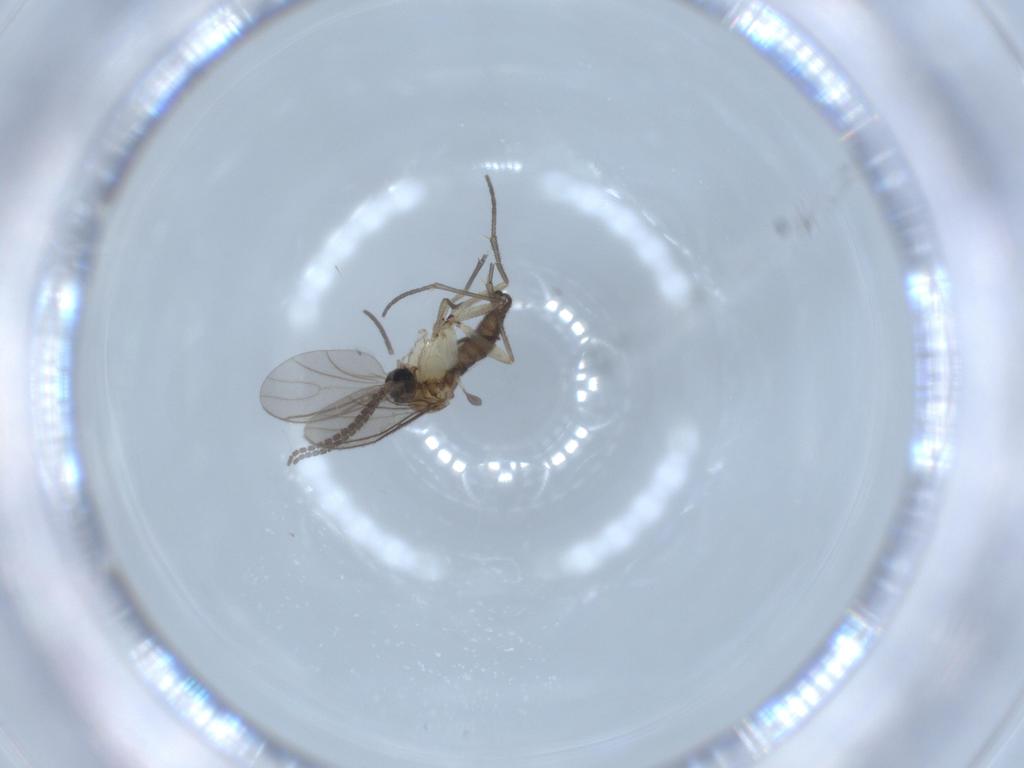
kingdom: Animalia
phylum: Arthropoda
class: Insecta
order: Diptera
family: Sciaridae
